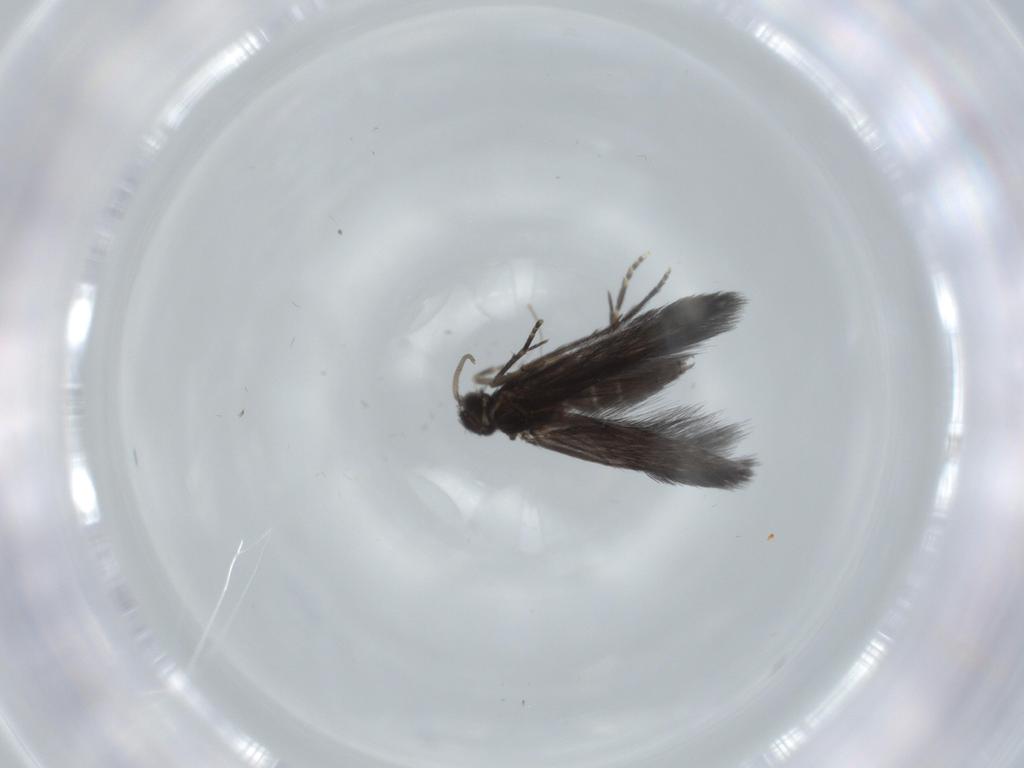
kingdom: Animalia
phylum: Arthropoda
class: Insecta
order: Trichoptera
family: Hydroptilidae
